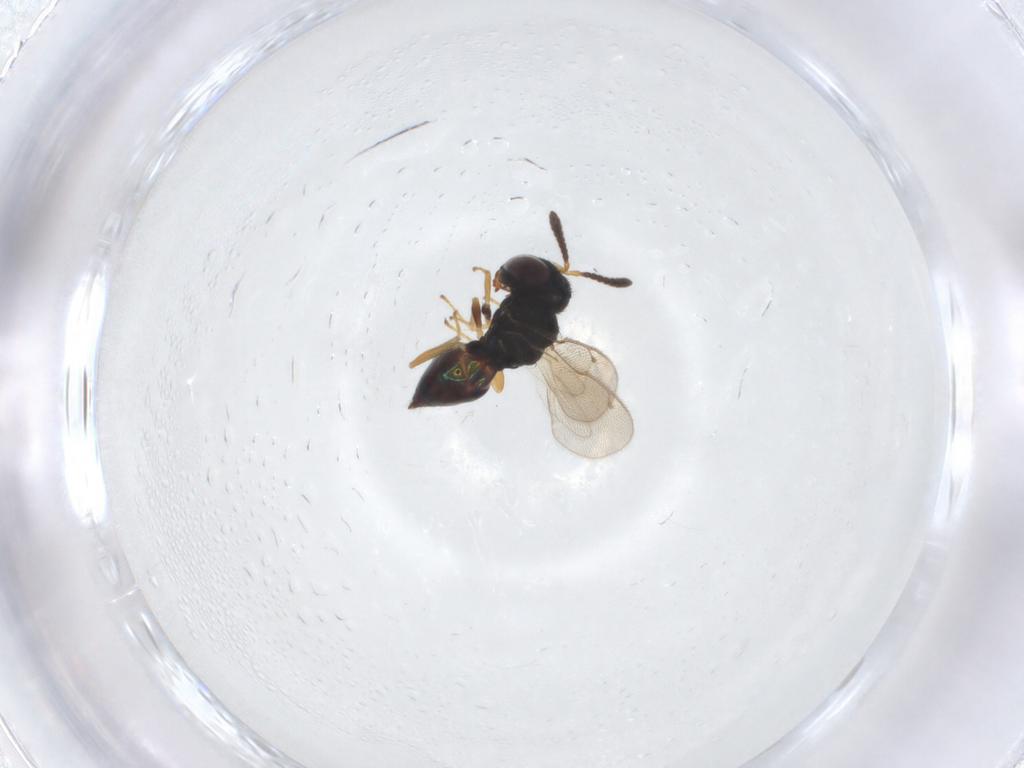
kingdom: Animalia
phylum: Arthropoda
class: Insecta
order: Hymenoptera
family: Pteromalidae
